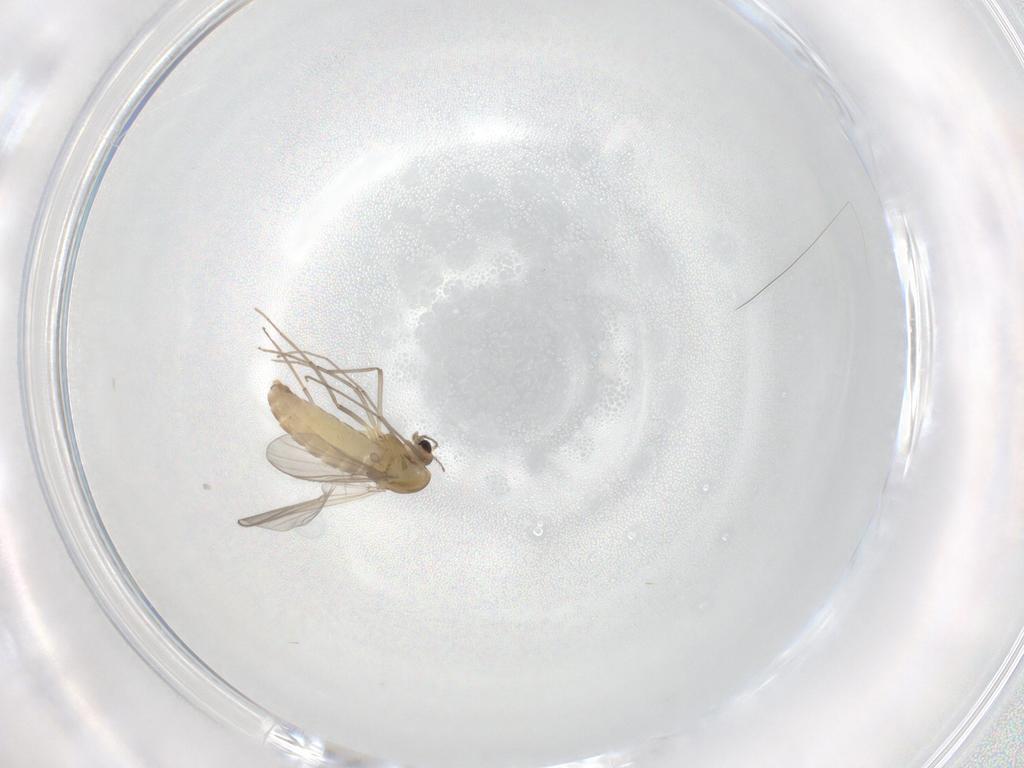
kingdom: Animalia
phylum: Arthropoda
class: Insecta
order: Diptera
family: Chironomidae
